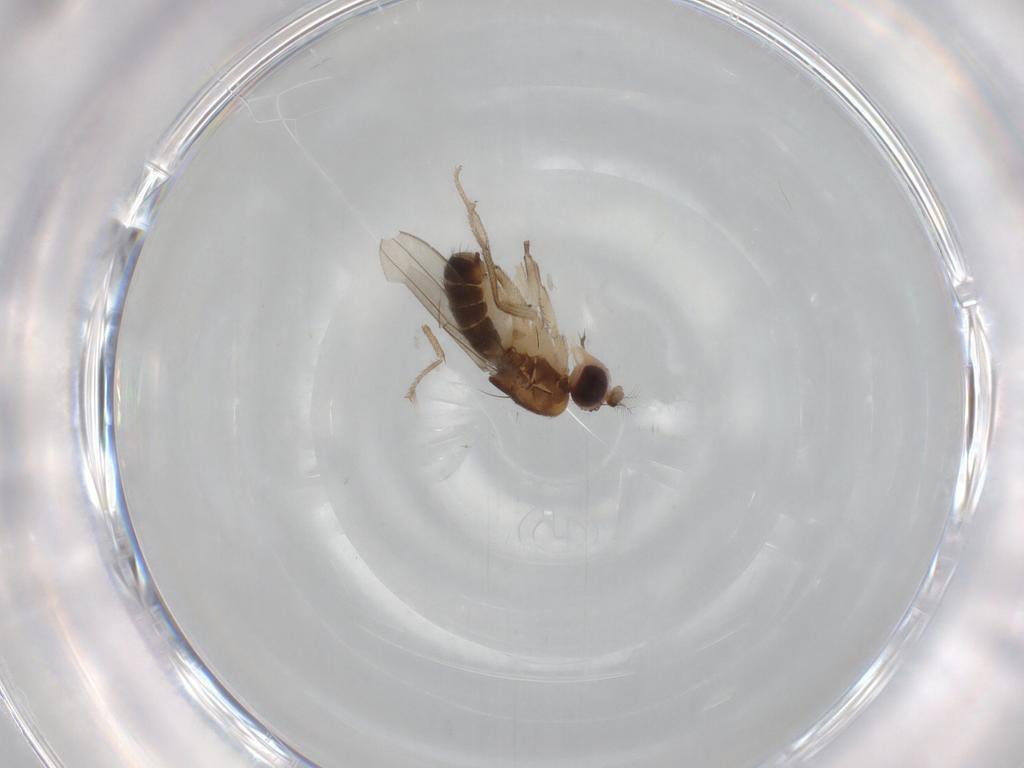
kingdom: Animalia
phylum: Arthropoda
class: Insecta
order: Diptera
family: Drosophilidae
